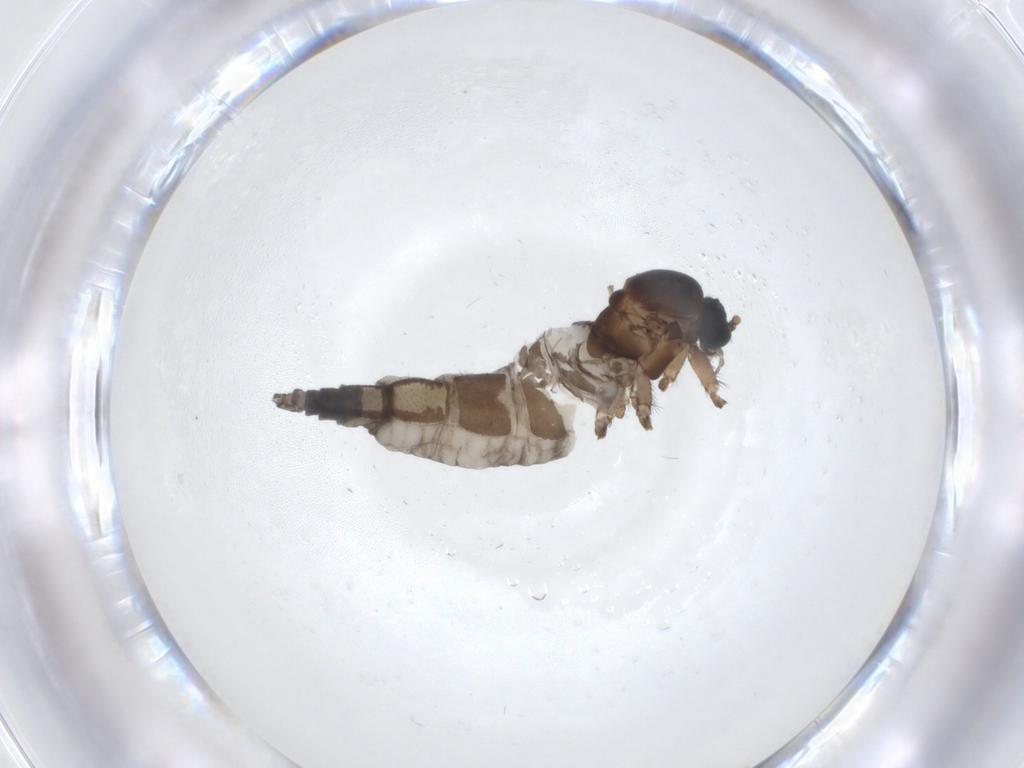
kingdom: Animalia
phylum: Arthropoda
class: Insecta
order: Diptera
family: Sciaridae
